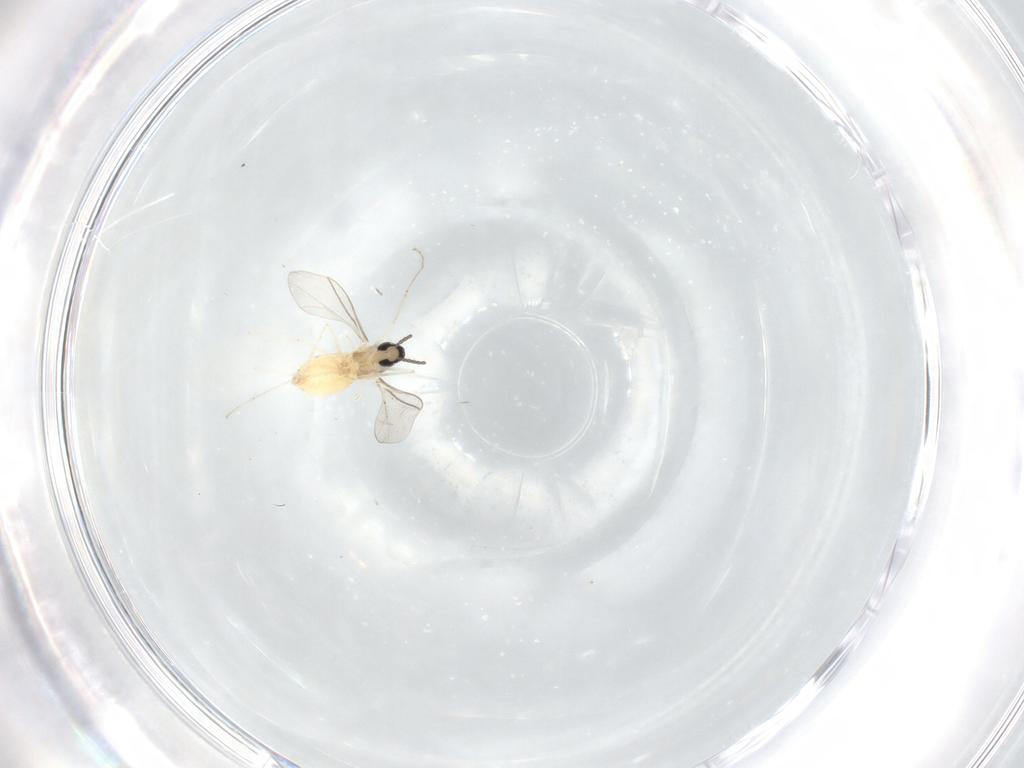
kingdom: Animalia
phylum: Arthropoda
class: Insecta
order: Diptera
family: Cecidomyiidae
